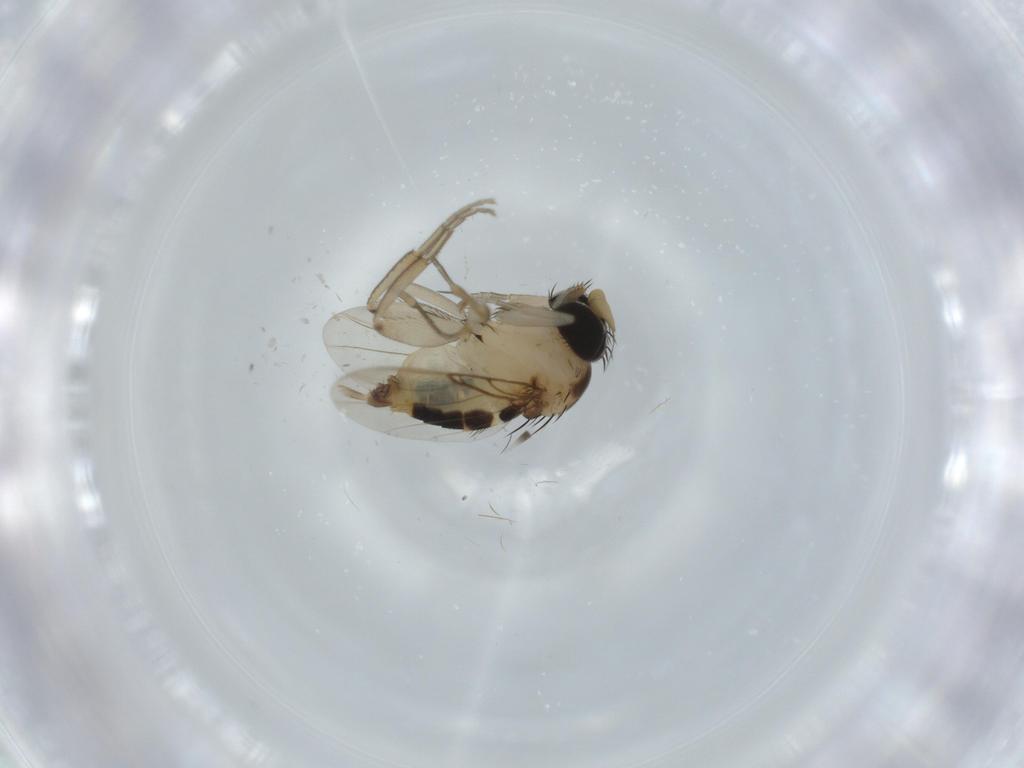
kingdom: Animalia
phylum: Arthropoda
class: Insecta
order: Diptera
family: Phoridae
